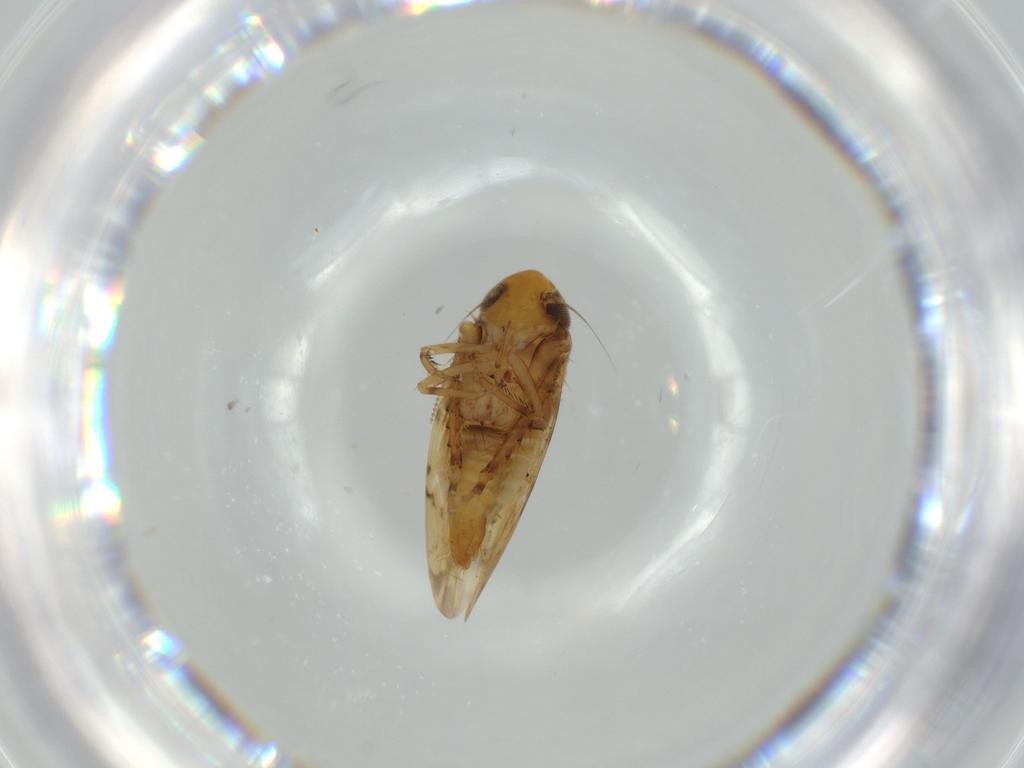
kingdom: Animalia
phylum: Arthropoda
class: Insecta
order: Hemiptera
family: Cicadellidae
